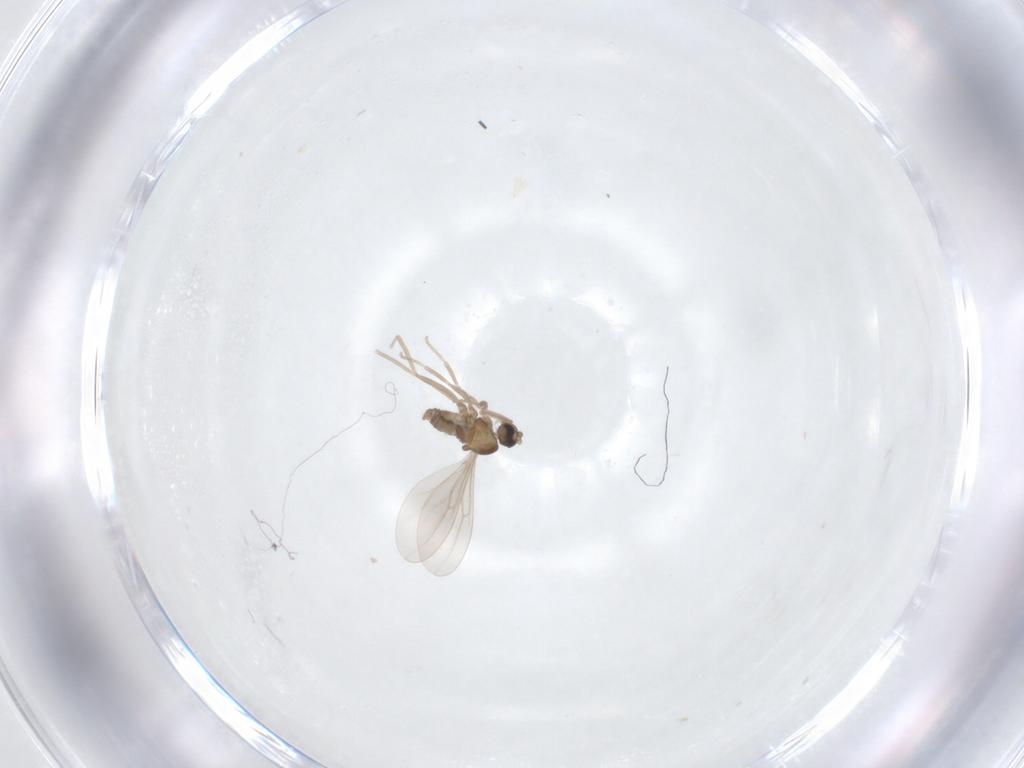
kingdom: Animalia
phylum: Arthropoda
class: Insecta
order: Diptera
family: Cecidomyiidae
